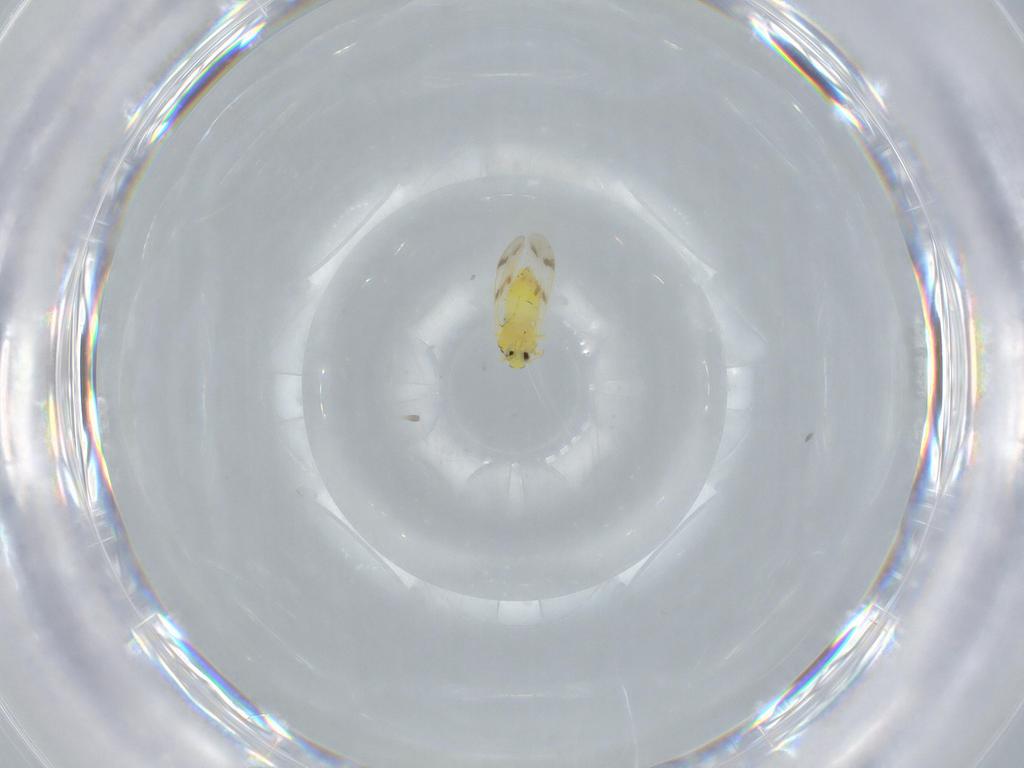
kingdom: Animalia
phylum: Arthropoda
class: Insecta
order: Hemiptera
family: Aleyrodidae
